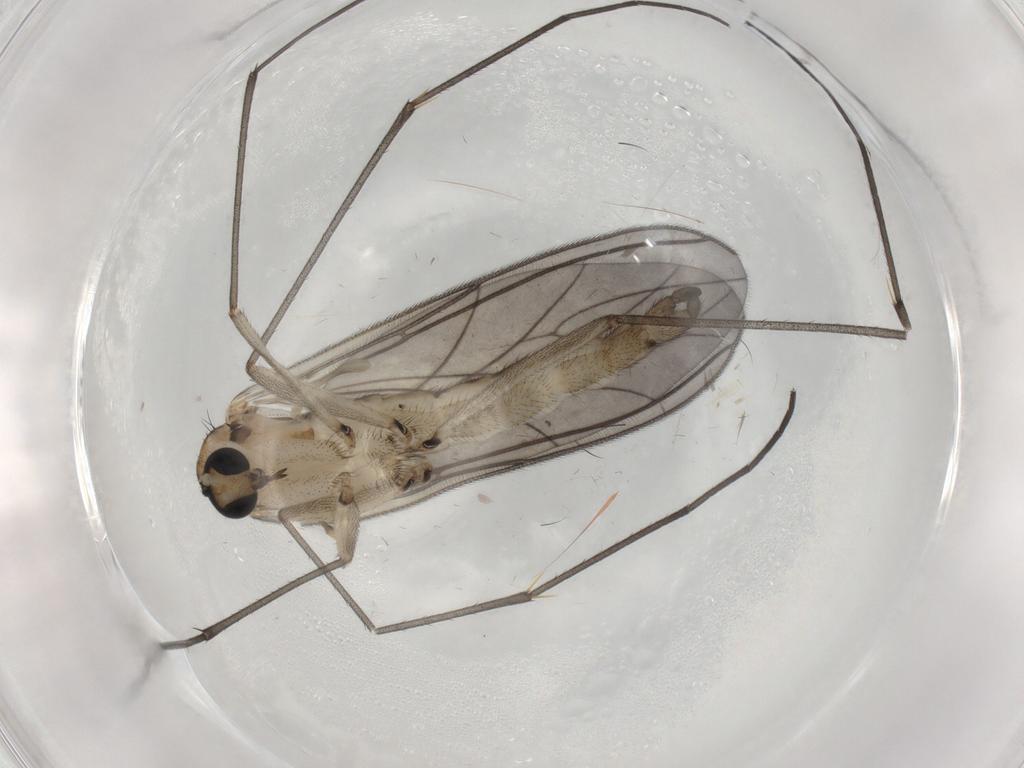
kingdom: Animalia
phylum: Arthropoda
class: Insecta
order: Diptera
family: Sciaridae
